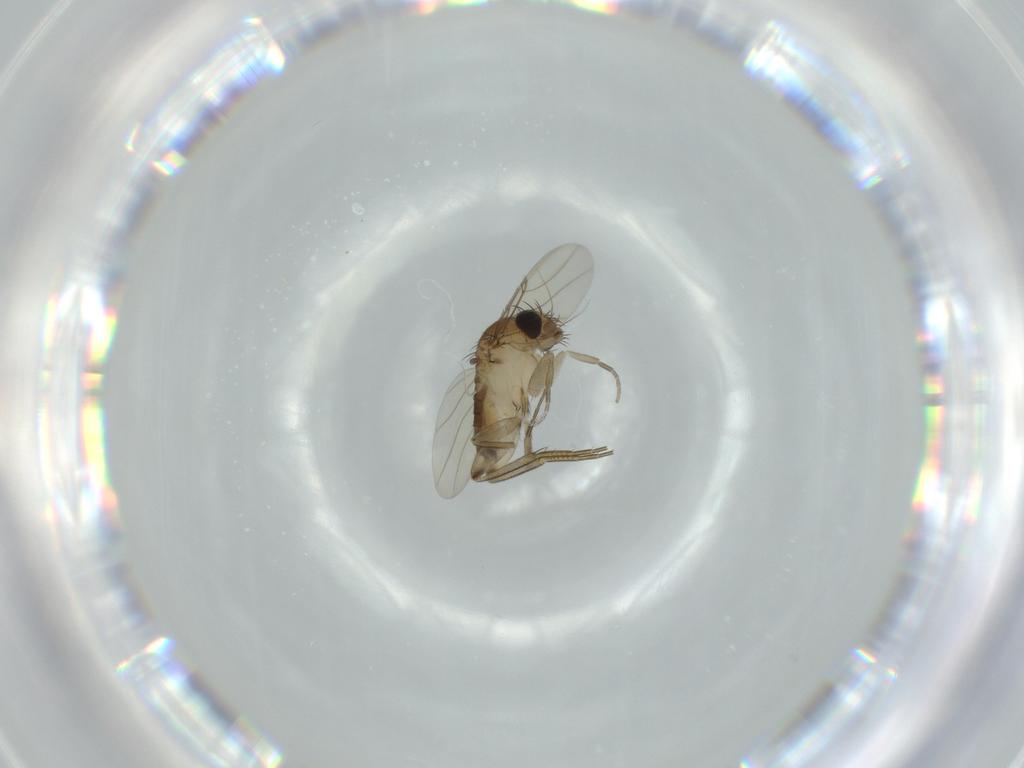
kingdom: Animalia
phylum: Arthropoda
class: Insecta
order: Diptera
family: Phoridae
